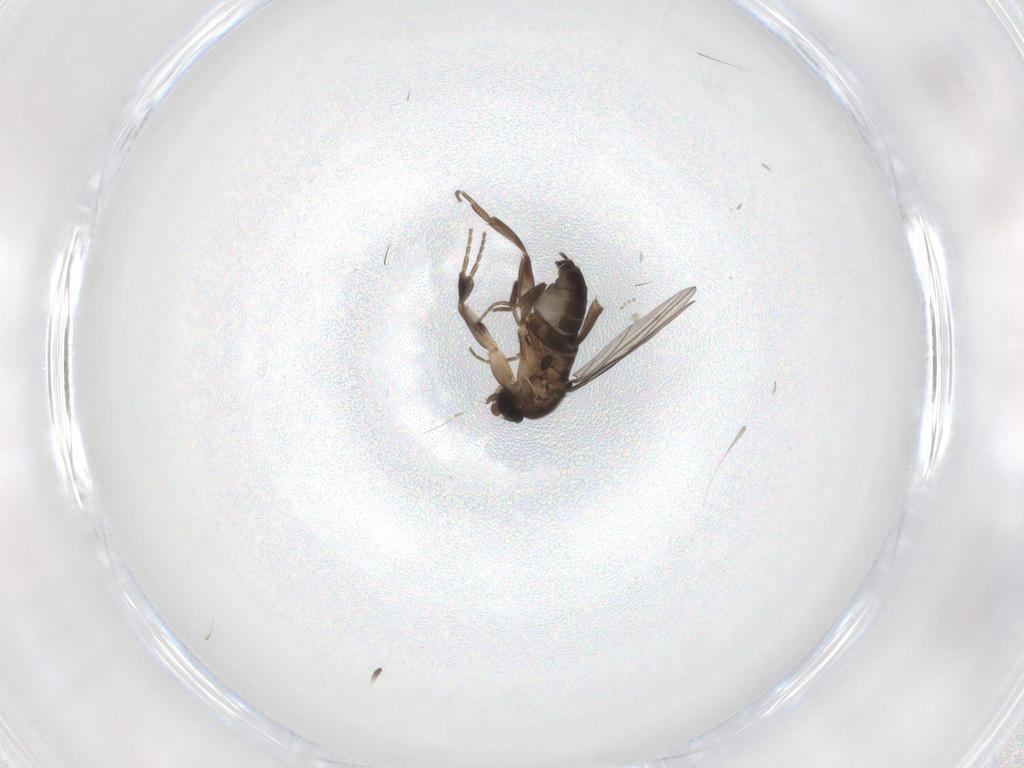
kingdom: Animalia
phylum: Arthropoda
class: Insecta
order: Diptera
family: Phoridae
